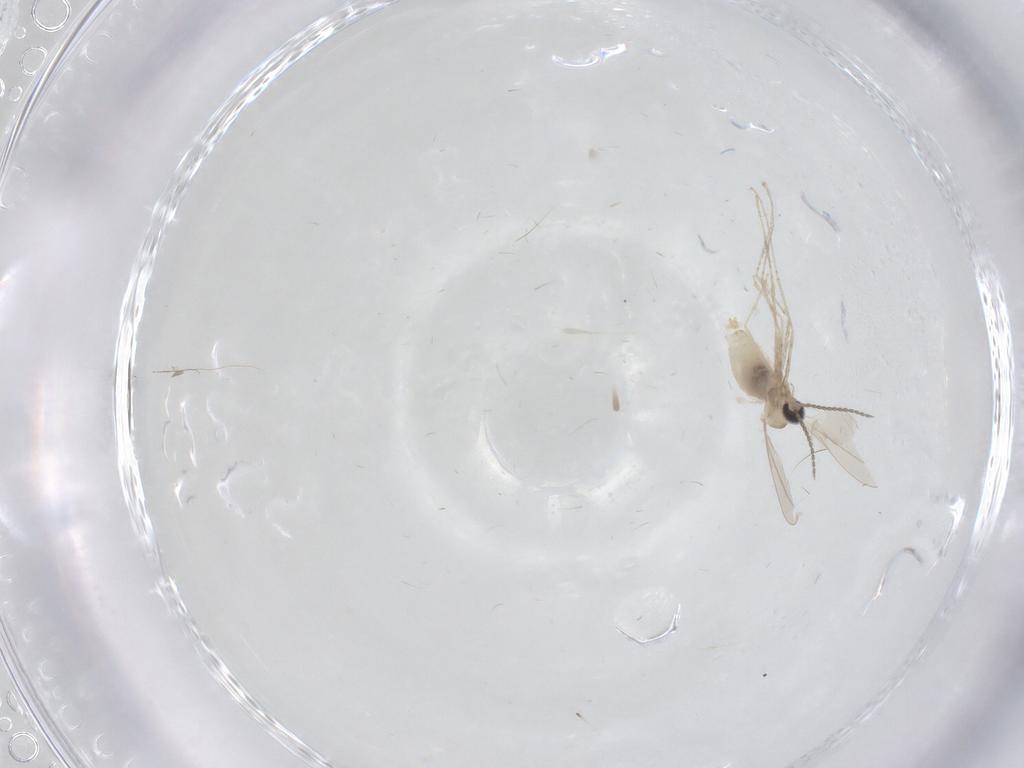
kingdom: Animalia
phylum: Arthropoda
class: Insecta
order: Diptera
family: Cecidomyiidae
